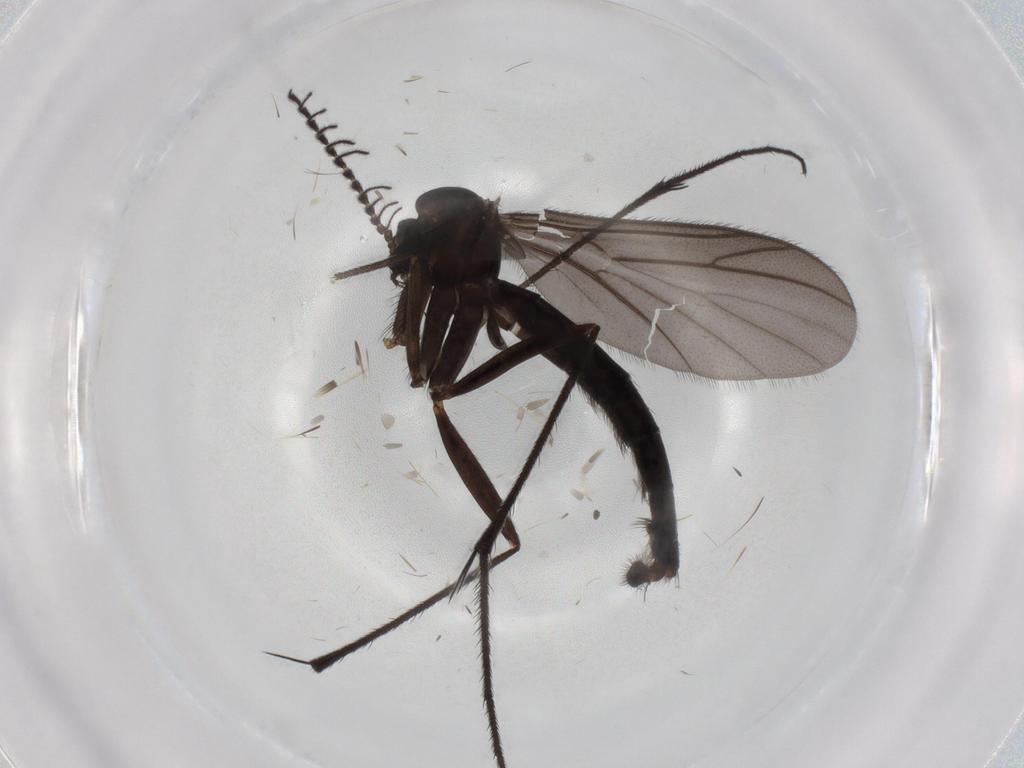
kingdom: Animalia
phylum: Arthropoda
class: Insecta
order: Diptera
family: Ditomyiidae
